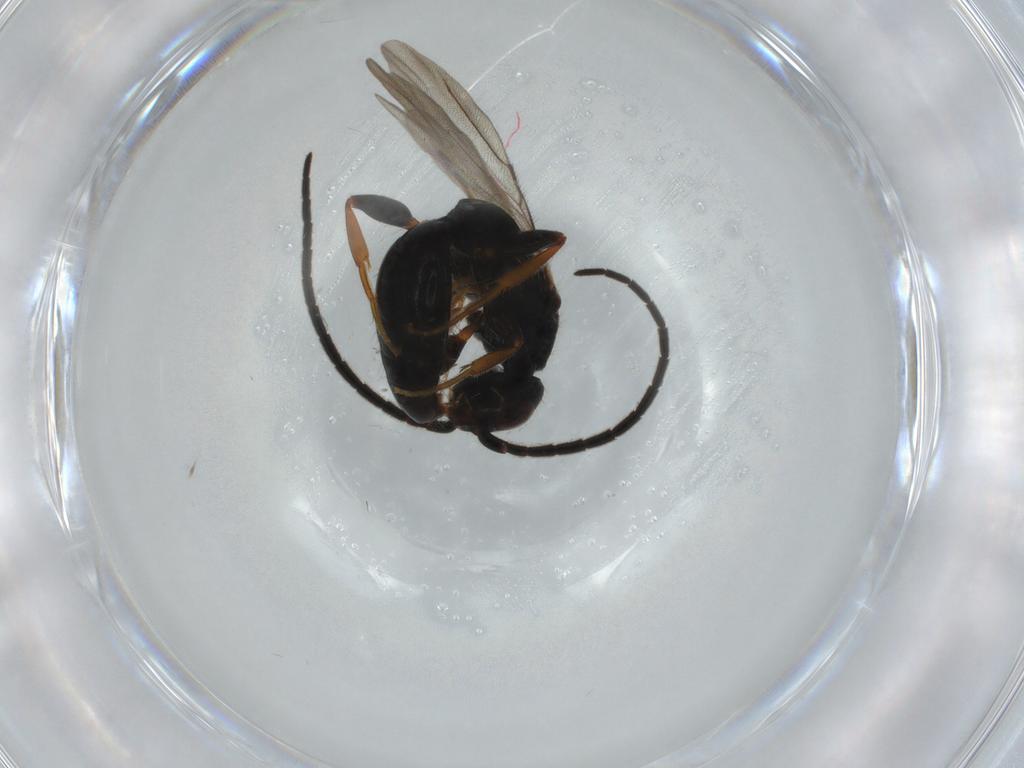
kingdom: Animalia
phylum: Arthropoda
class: Insecta
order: Hymenoptera
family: Bethylidae
